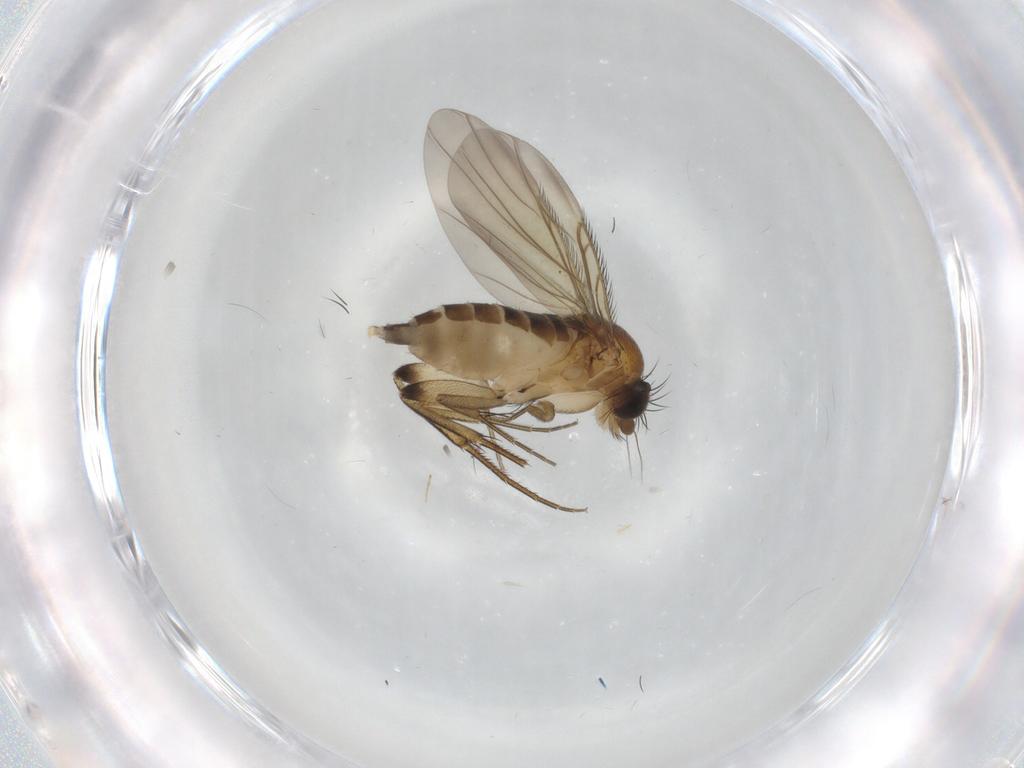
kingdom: Animalia
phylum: Arthropoda
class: Insecta
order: Diptera
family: Phoridae
